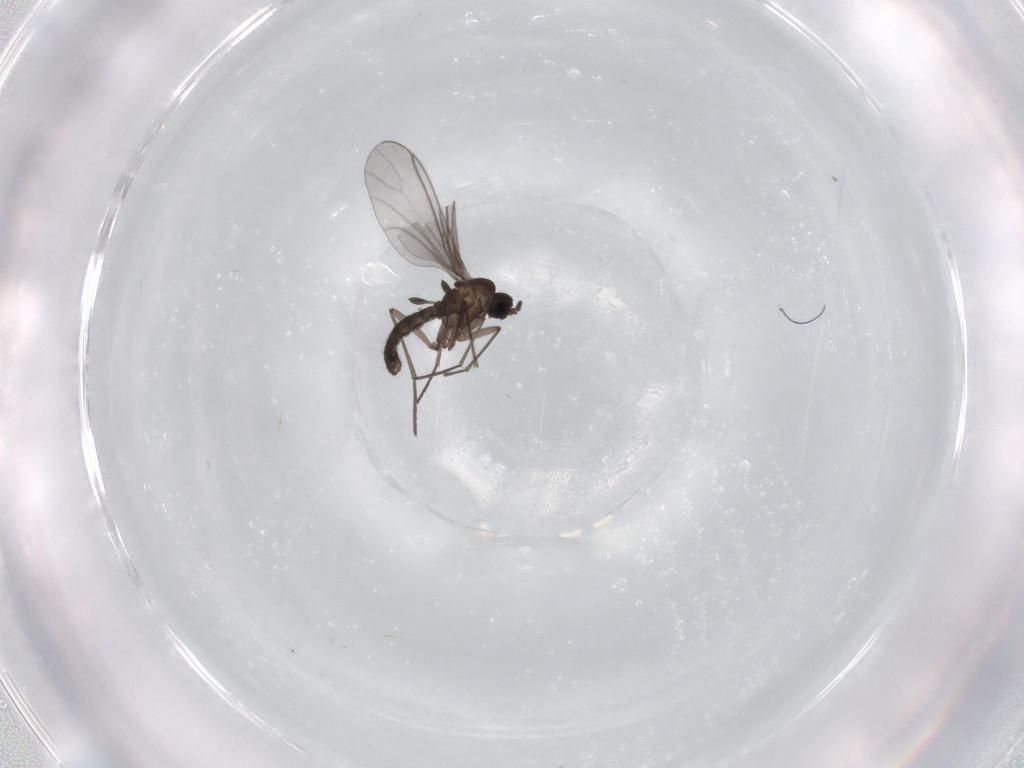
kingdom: Animalia
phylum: Arthropoda
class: Insecta
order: Diptera
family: Sciaridae
